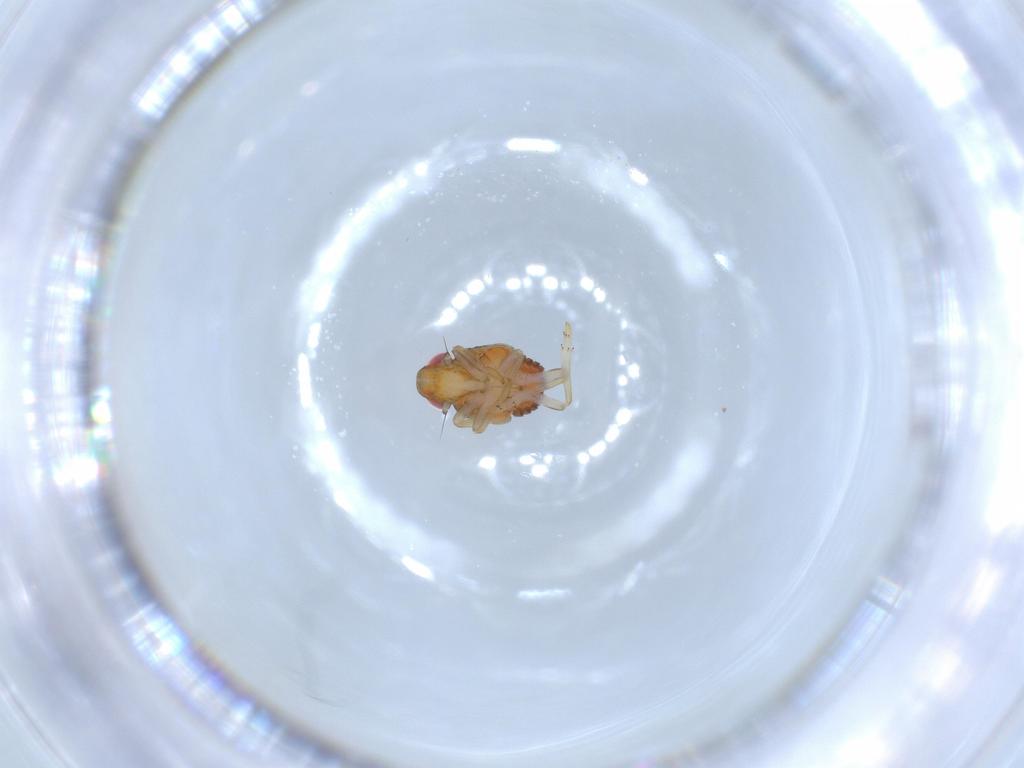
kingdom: Animalia
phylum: Arthropoda
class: Insecta
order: Hemiptera
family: Issidae
